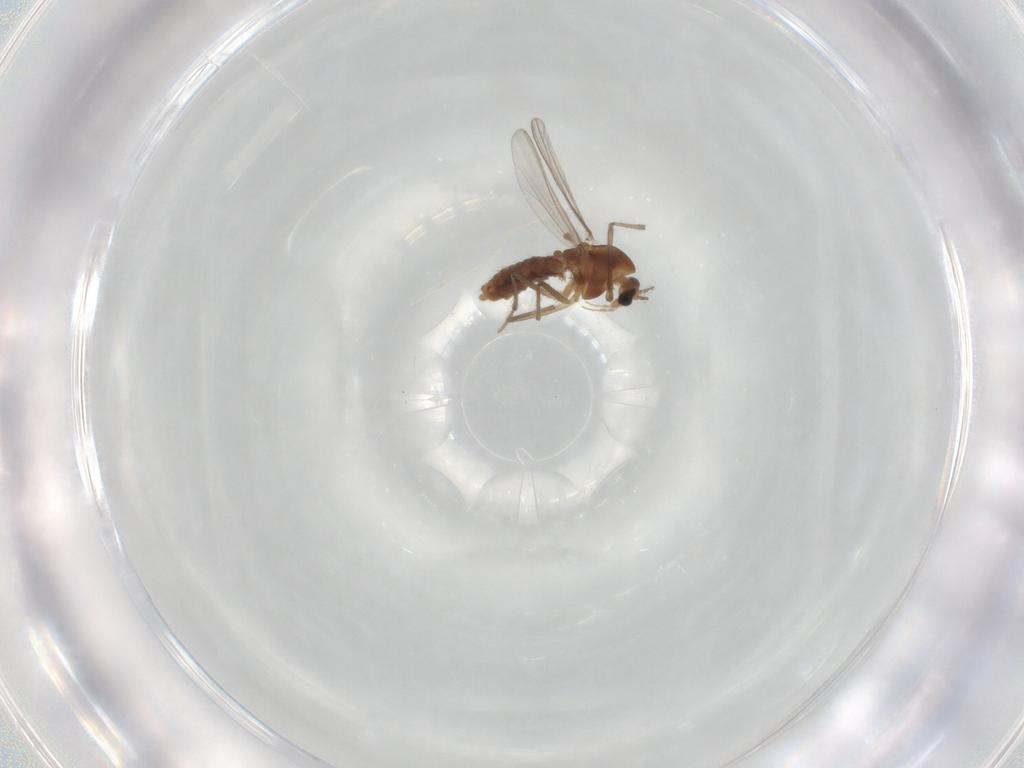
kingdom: Animalia
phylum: Arthropoda
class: Insecta
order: Diptera
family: Chironomidae
